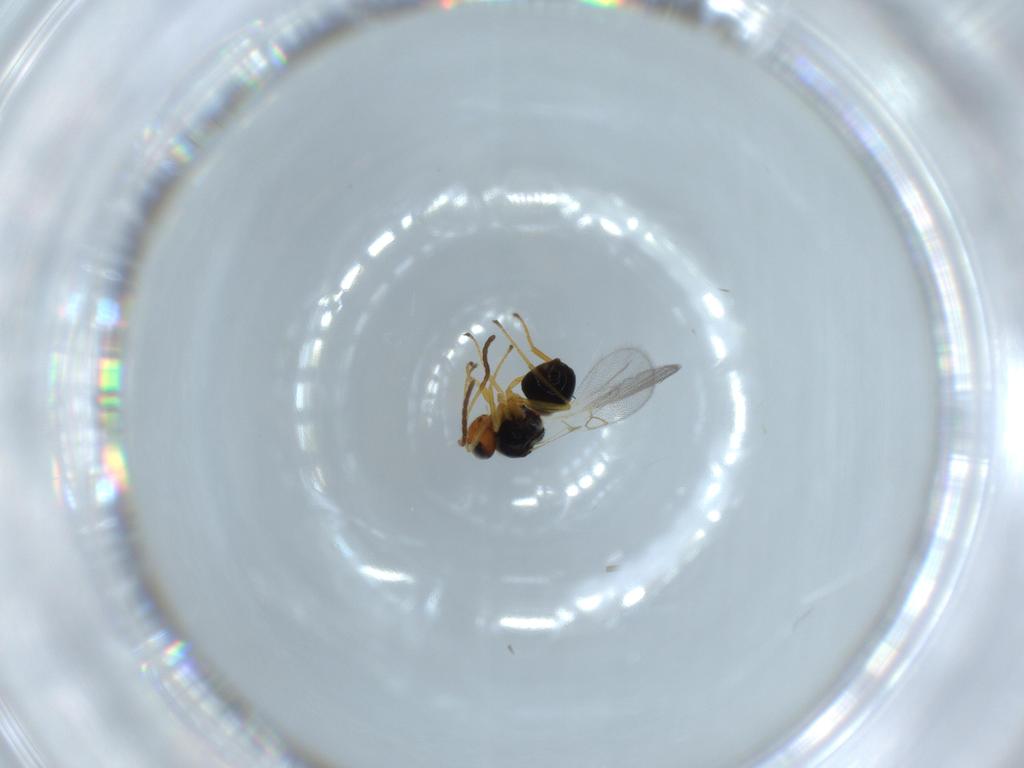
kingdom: Animalia
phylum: Arthropoda
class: Insecta
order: Hymenoptera
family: Figitidae
